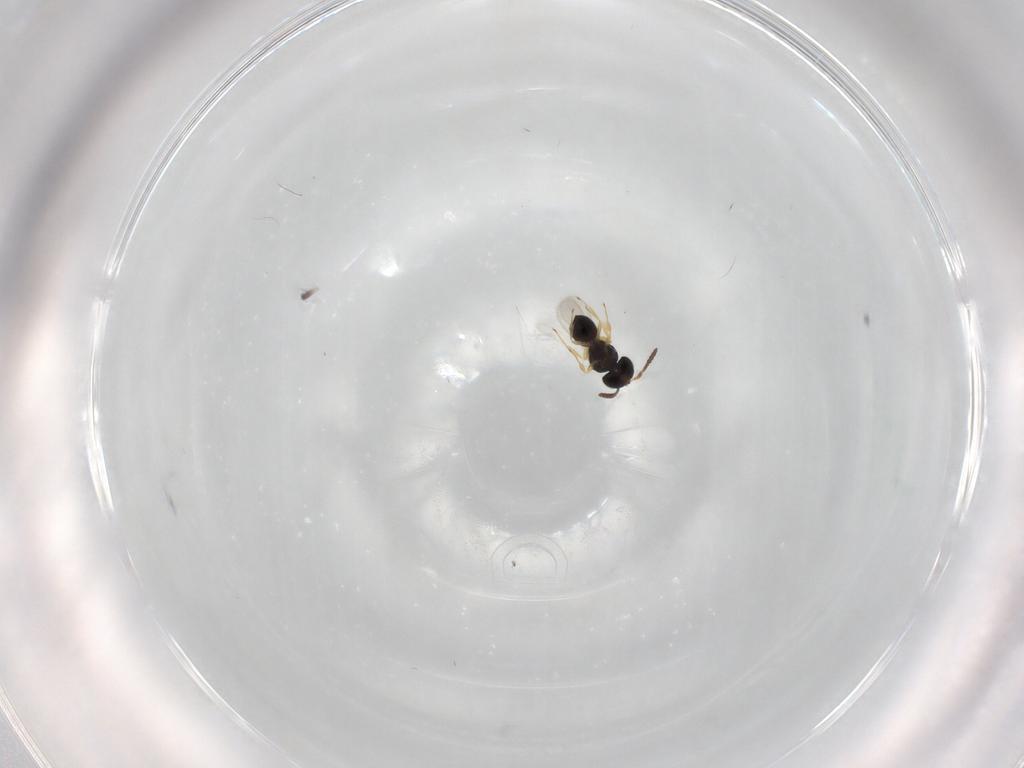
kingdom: Animalia
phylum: Arthropoda
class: Insecta
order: Hymenoptera
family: Scelionidae
